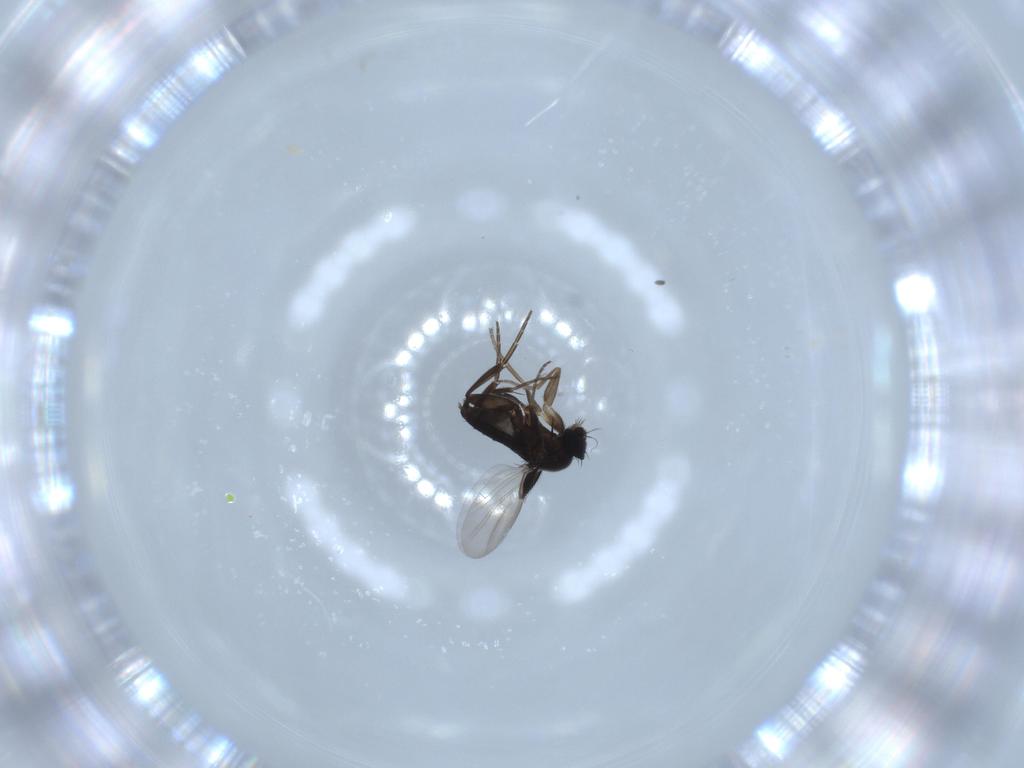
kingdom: Animalia
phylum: Arthropoda
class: Insecta
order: Diptera
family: Phoridae
